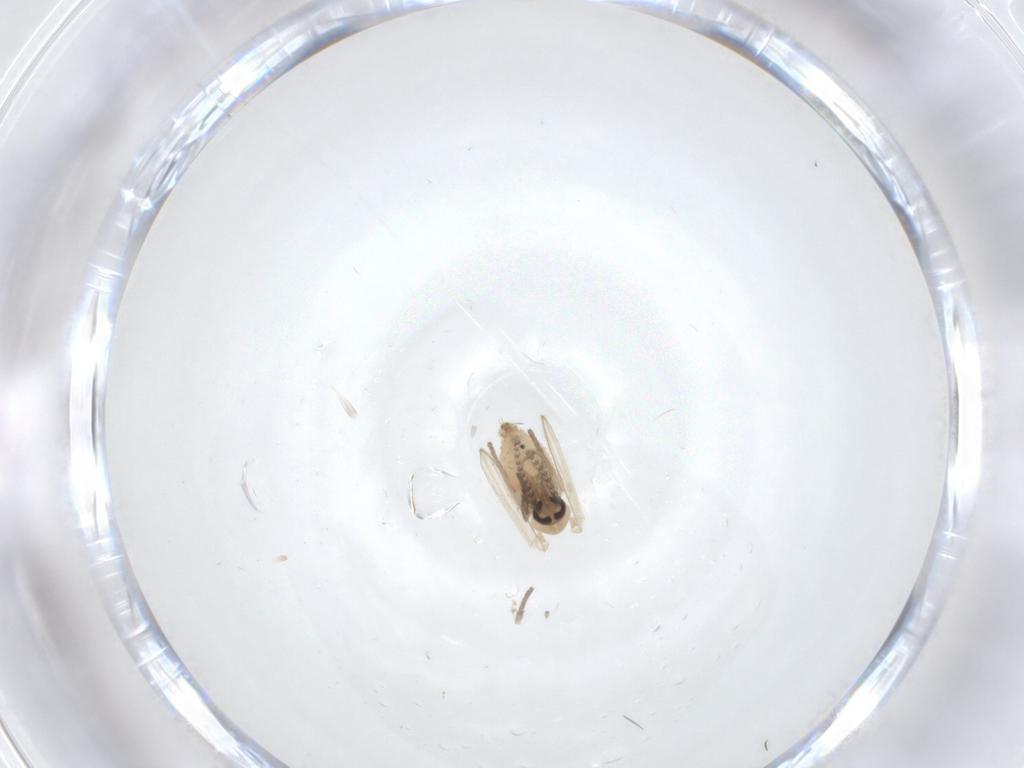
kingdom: Animalia
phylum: Arthropoda
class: Insecta
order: Diptera
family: Psychodidae
